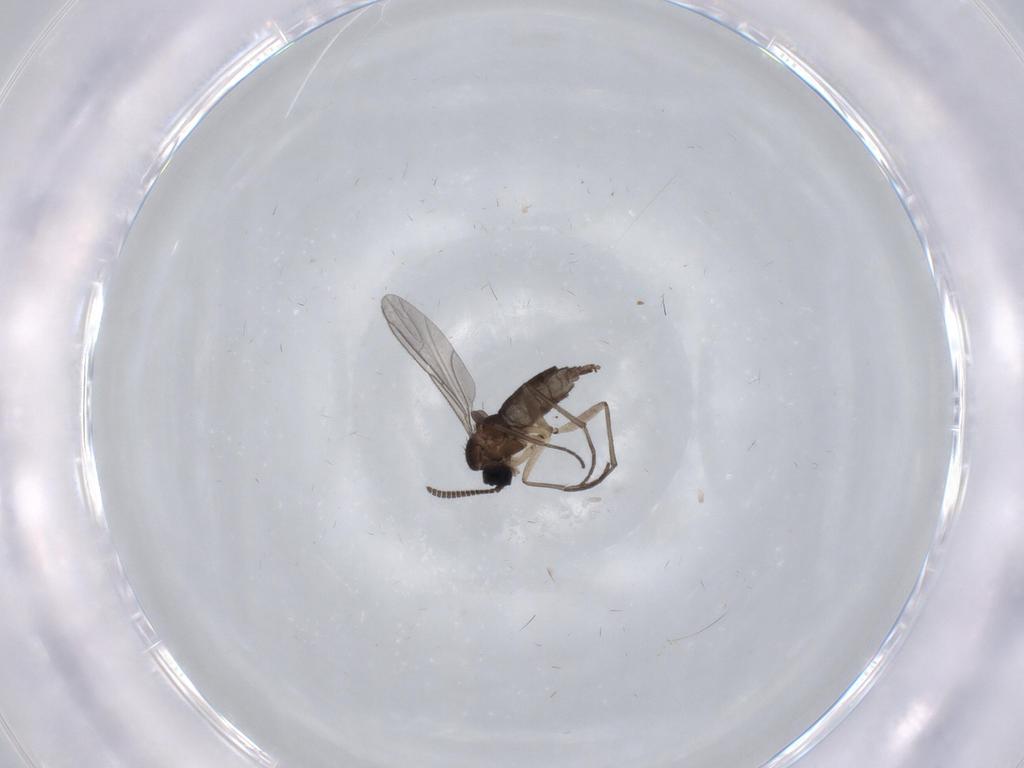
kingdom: Animalia
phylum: Arthropoda
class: Insecta
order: Diptera
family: Sciaridae
